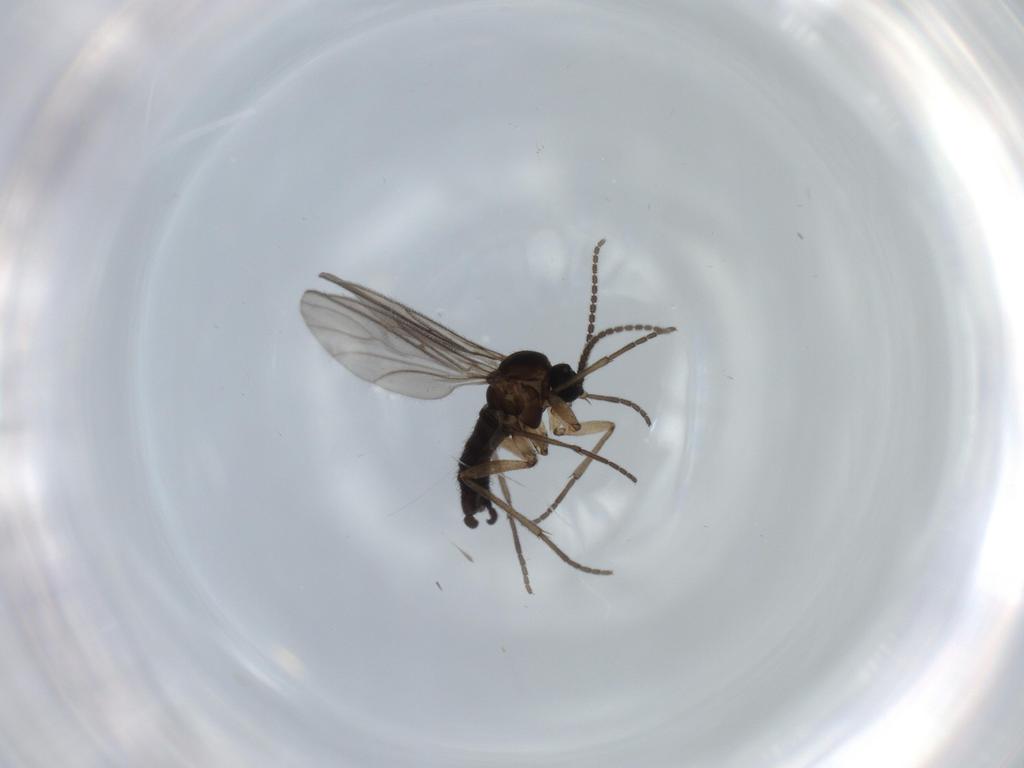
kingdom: Animalia
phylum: Arthropoda
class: Insecta
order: Diptera
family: Sciaridae
